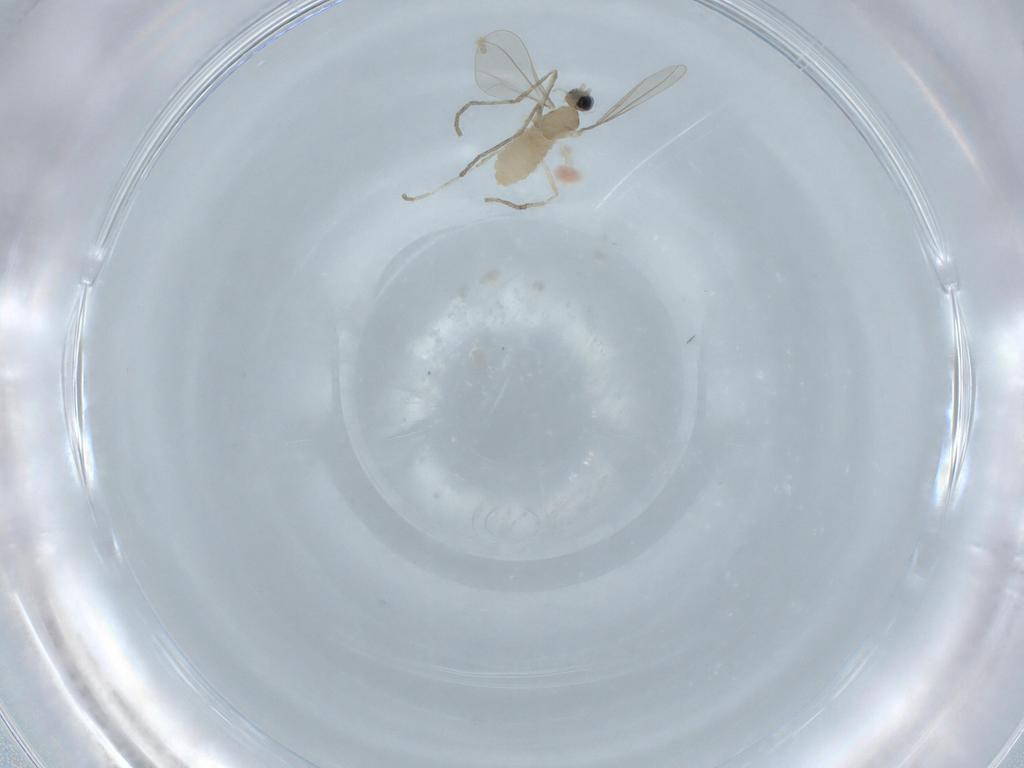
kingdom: Animalia
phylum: Arthropoda
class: Insecta
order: Diptera
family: Cecidomyiidae
